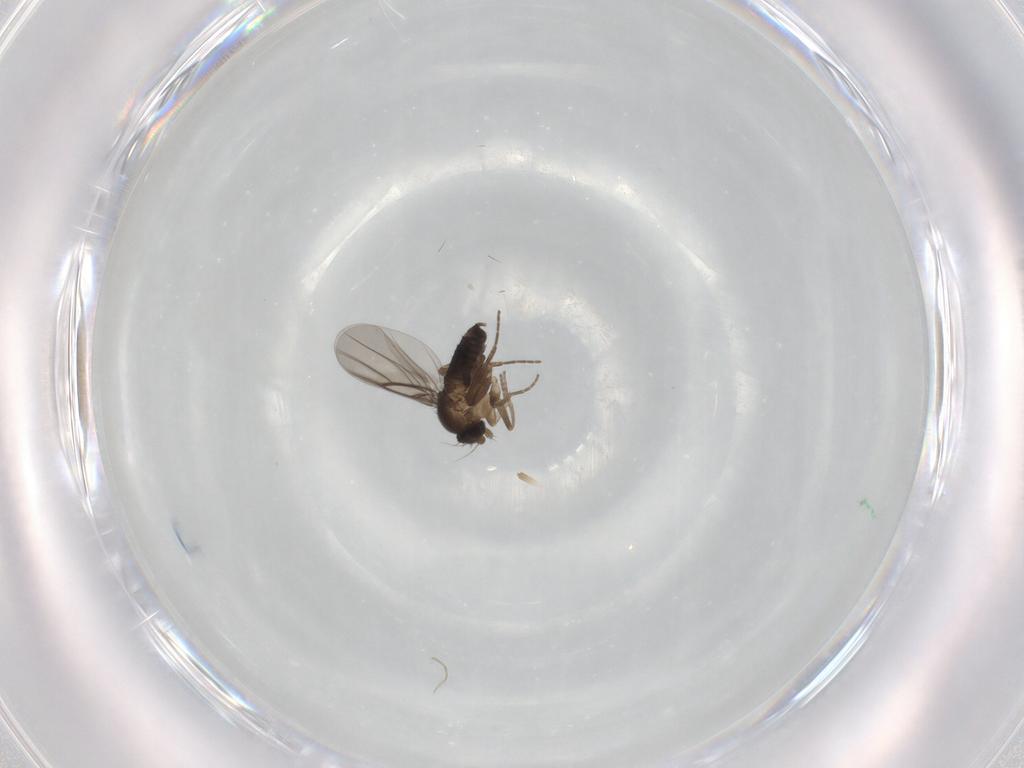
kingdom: Animalia
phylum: Arthropoda
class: Insecta
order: Diptera
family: Phoridae
